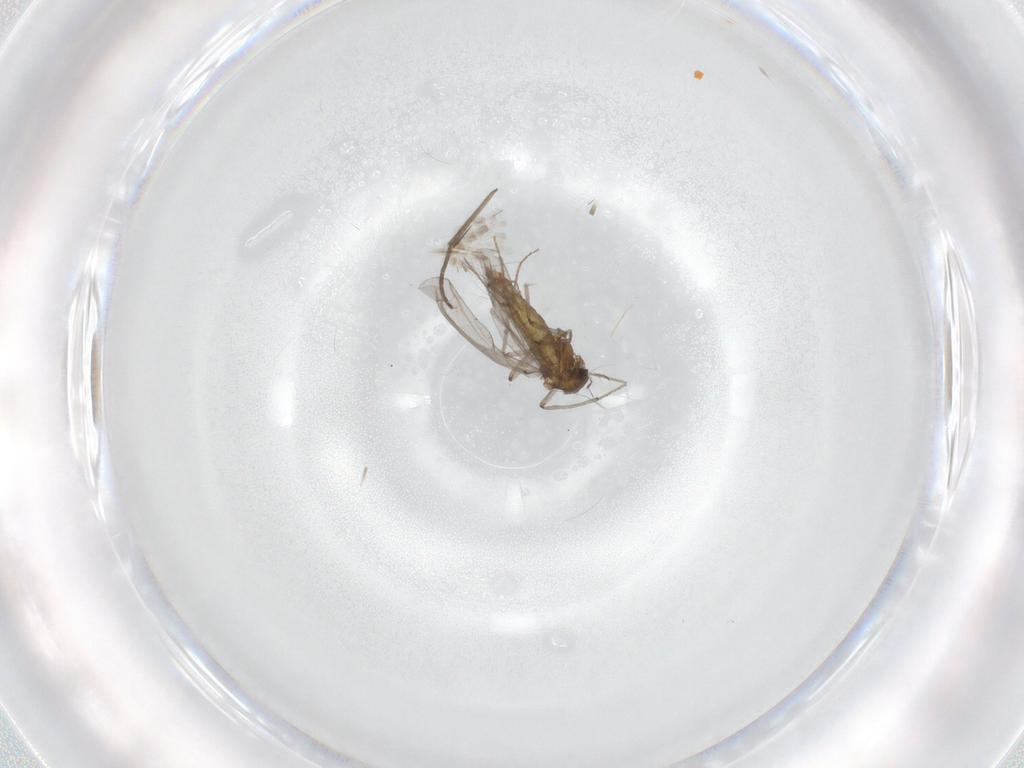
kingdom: Animalia
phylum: Arthropoda
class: Insecta
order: Diptera
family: Chironomidae
